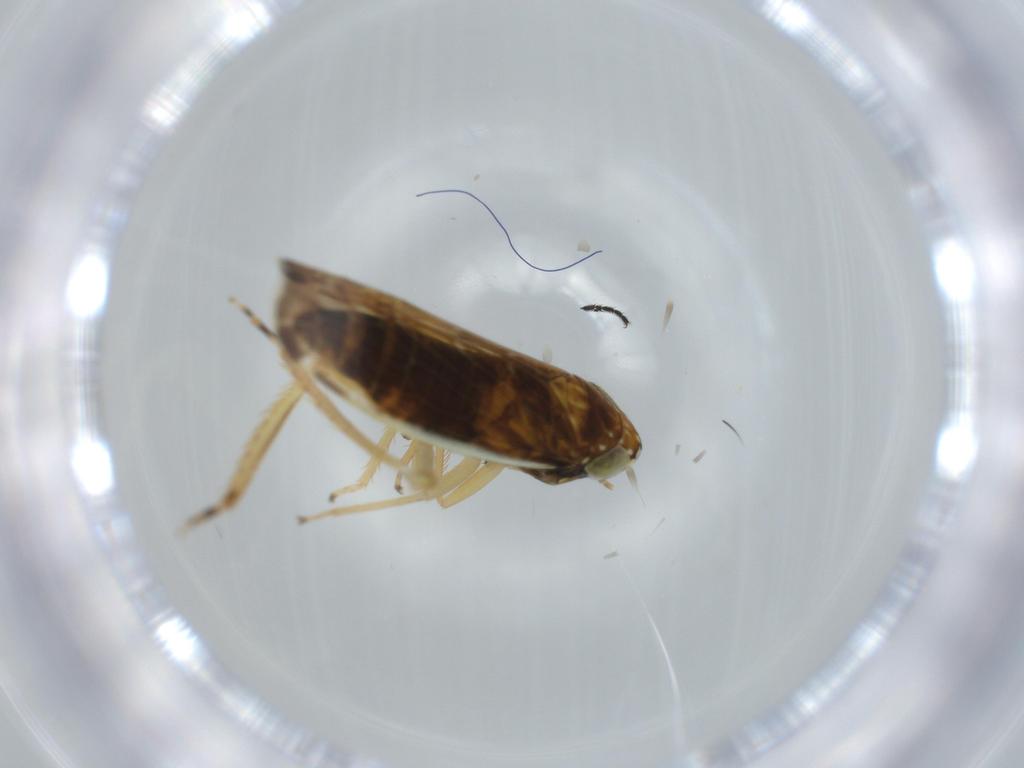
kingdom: Animalia
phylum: Arthropoda
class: Insecta
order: Hemiptera
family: Cicadellidae
